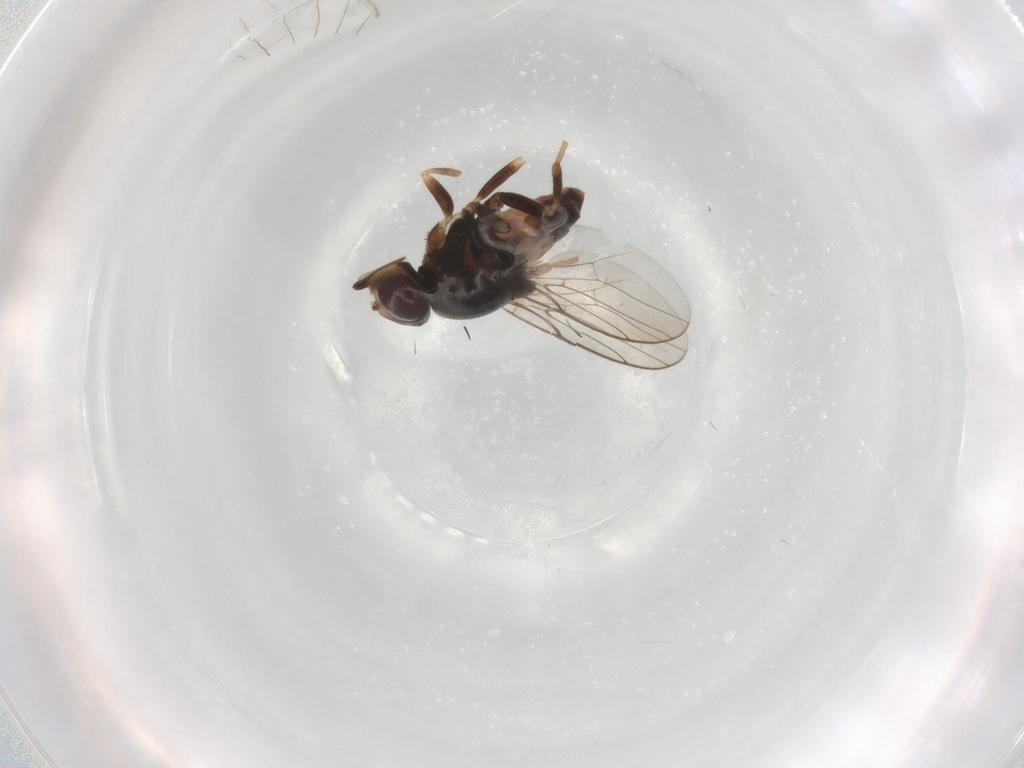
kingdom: Animalia
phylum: Arthropoda
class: Insecta
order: Diptera
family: Chloropidae
